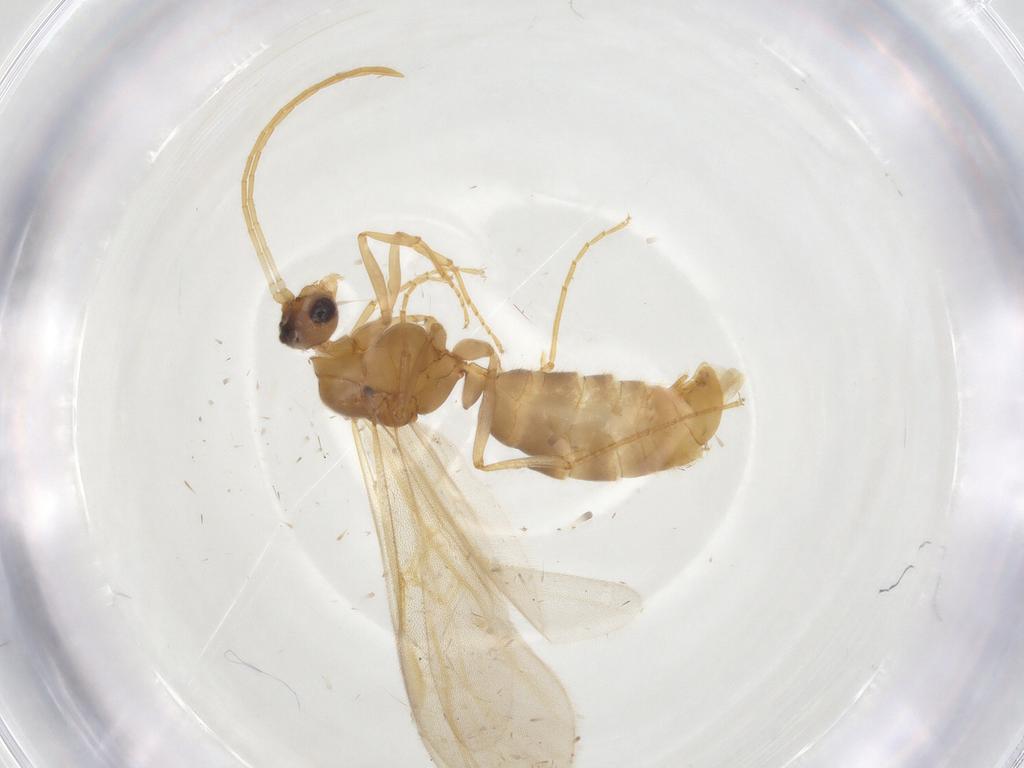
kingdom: Animalia
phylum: Arthropoda
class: Insecta
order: Hymenoptera
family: Formicidae
